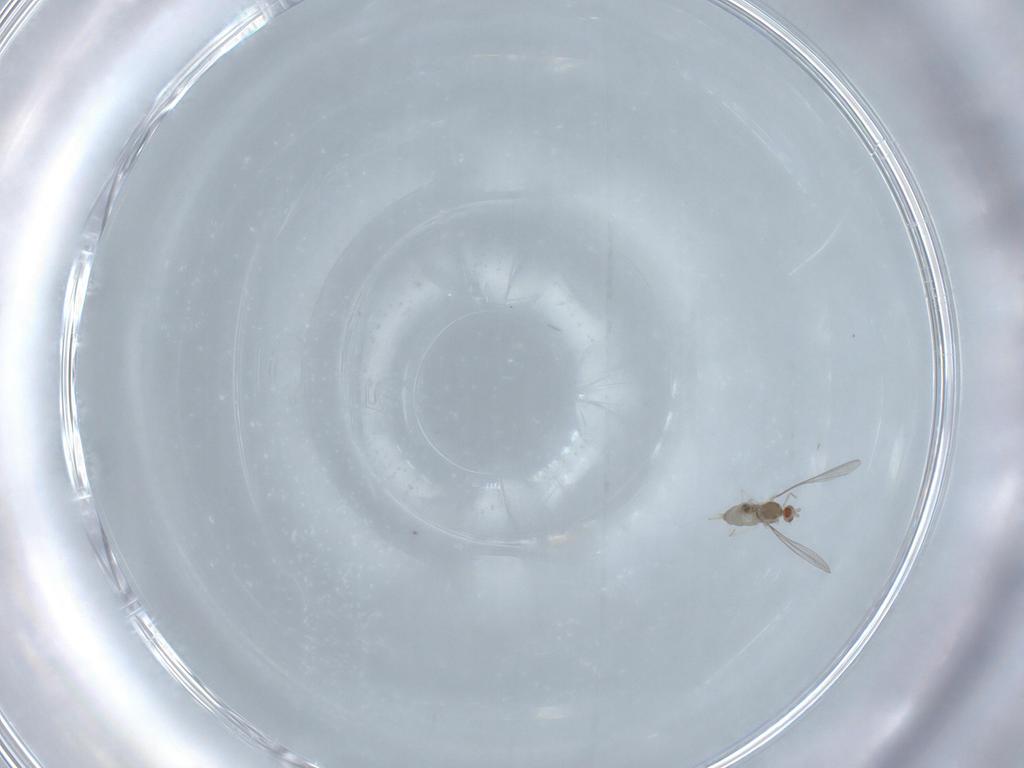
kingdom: Animalia
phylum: Arthropoda
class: Insecta
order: Diptera
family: Cecidomyiidae
